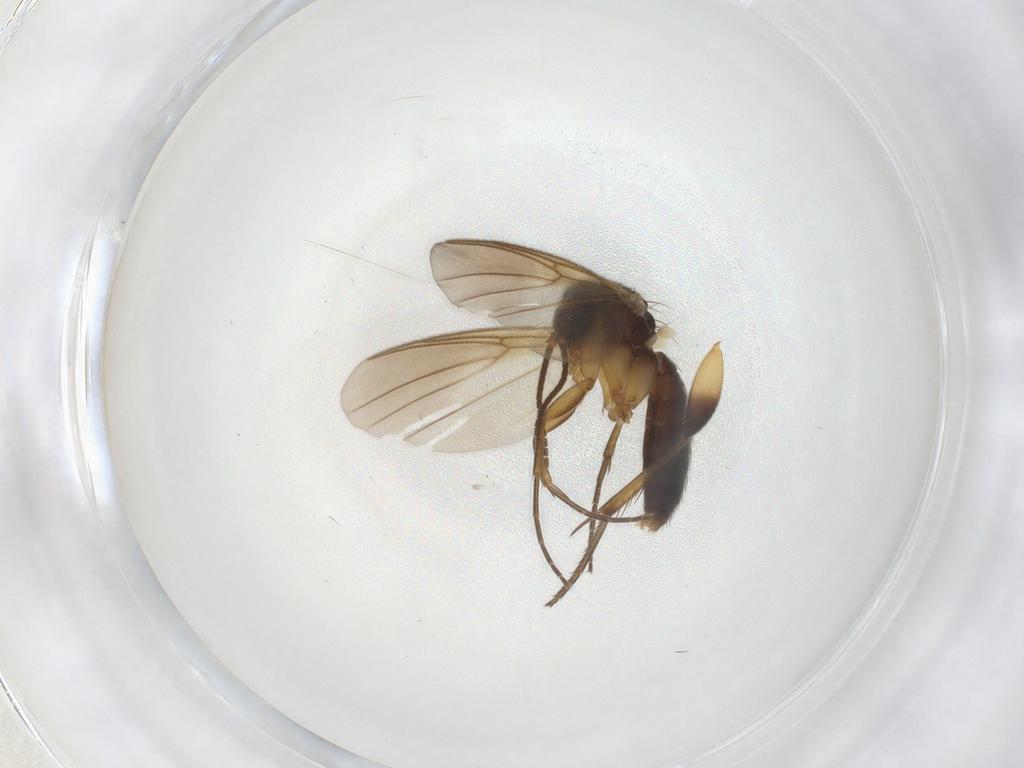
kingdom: Animalia
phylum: Arthropoda
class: Insecta
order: Diptera
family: Mycetophilidae
